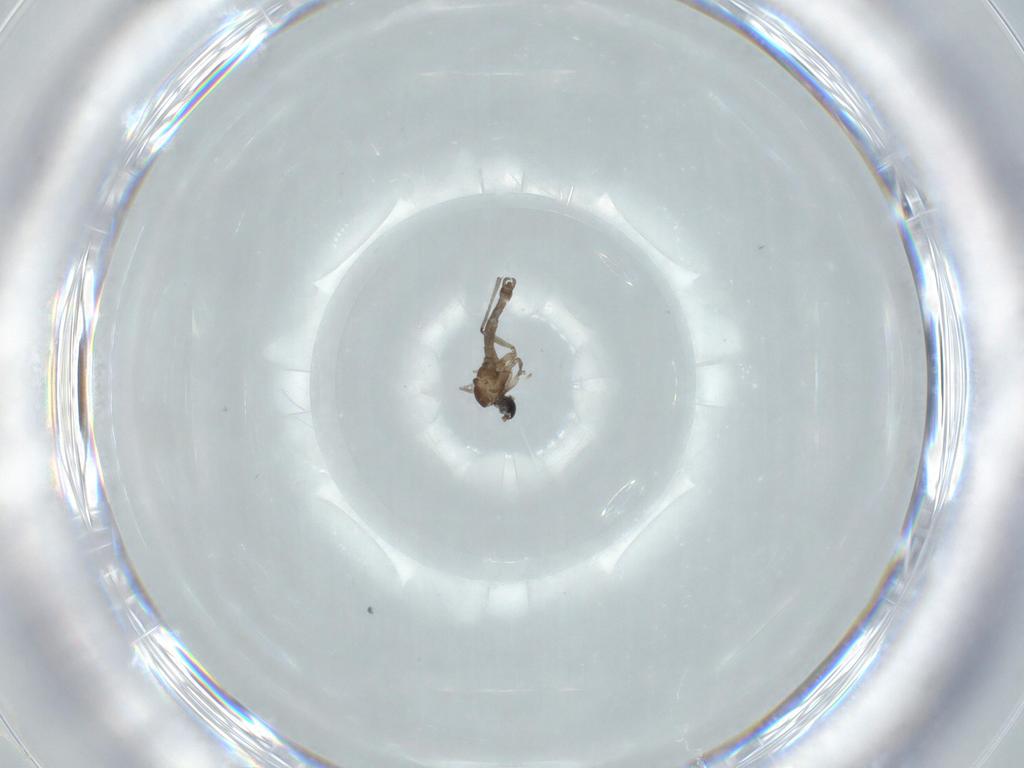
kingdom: Animalia
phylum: Arthropoda
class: Insecta
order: Diptera
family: Sciaridae
